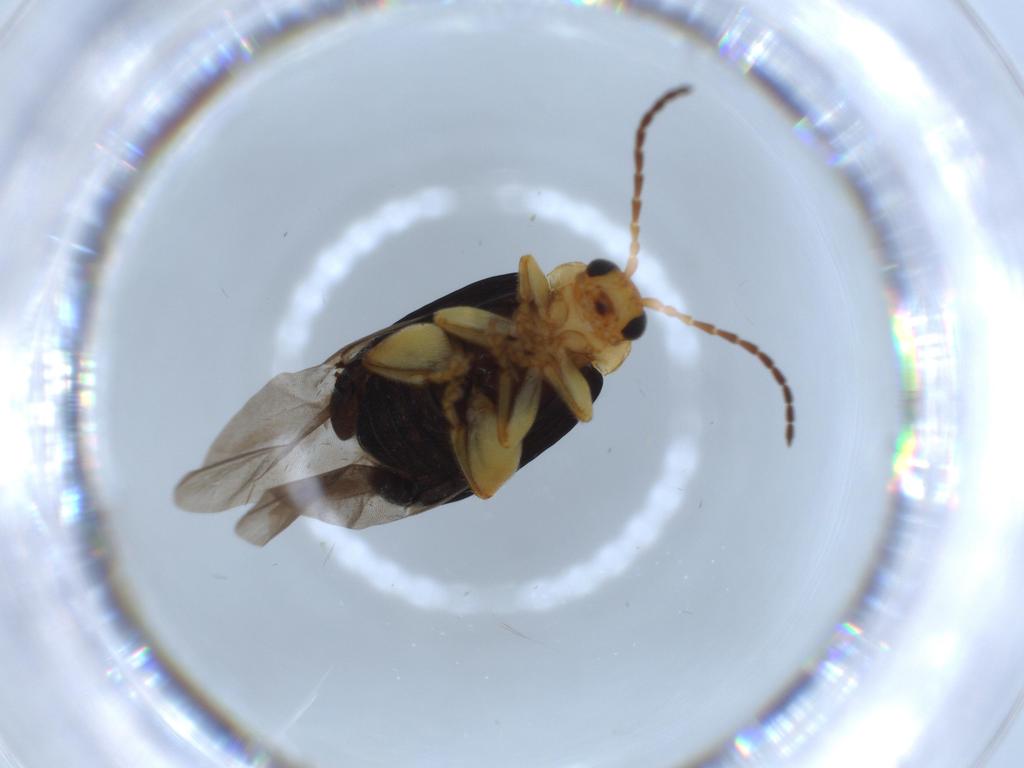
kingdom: Animalia
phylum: Arthropoda
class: Insecta
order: Coleoptera
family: Chrysomelidae
